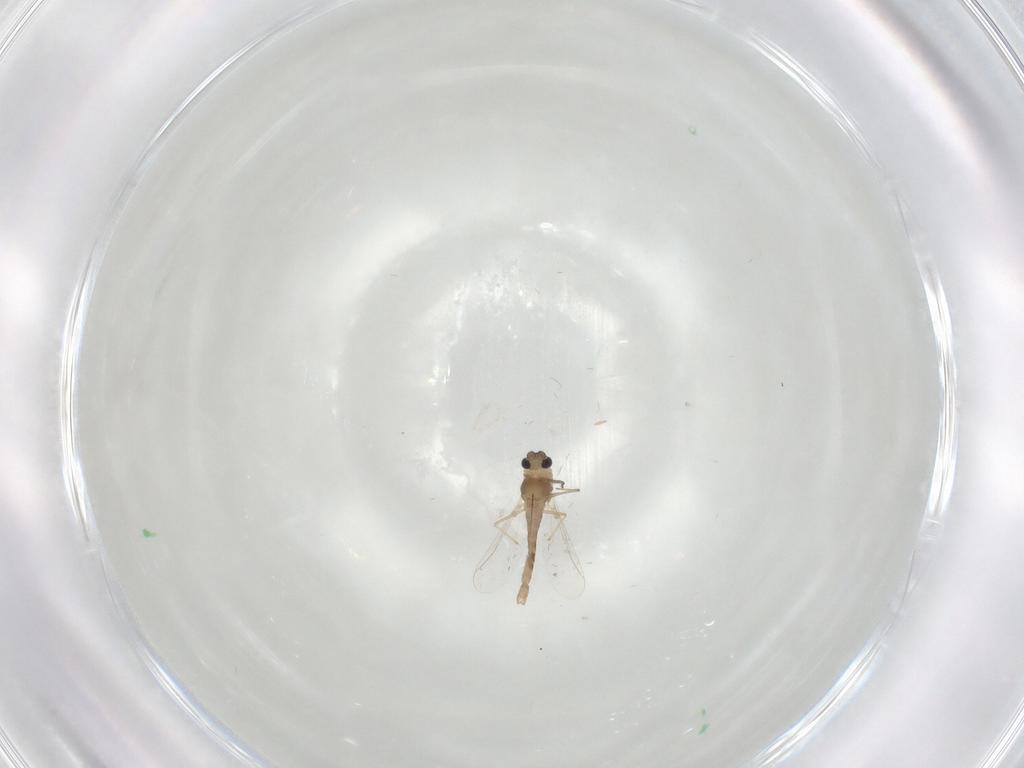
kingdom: Animalia
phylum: Arthropoda
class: Insecta
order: Diptera
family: Chironomidae
